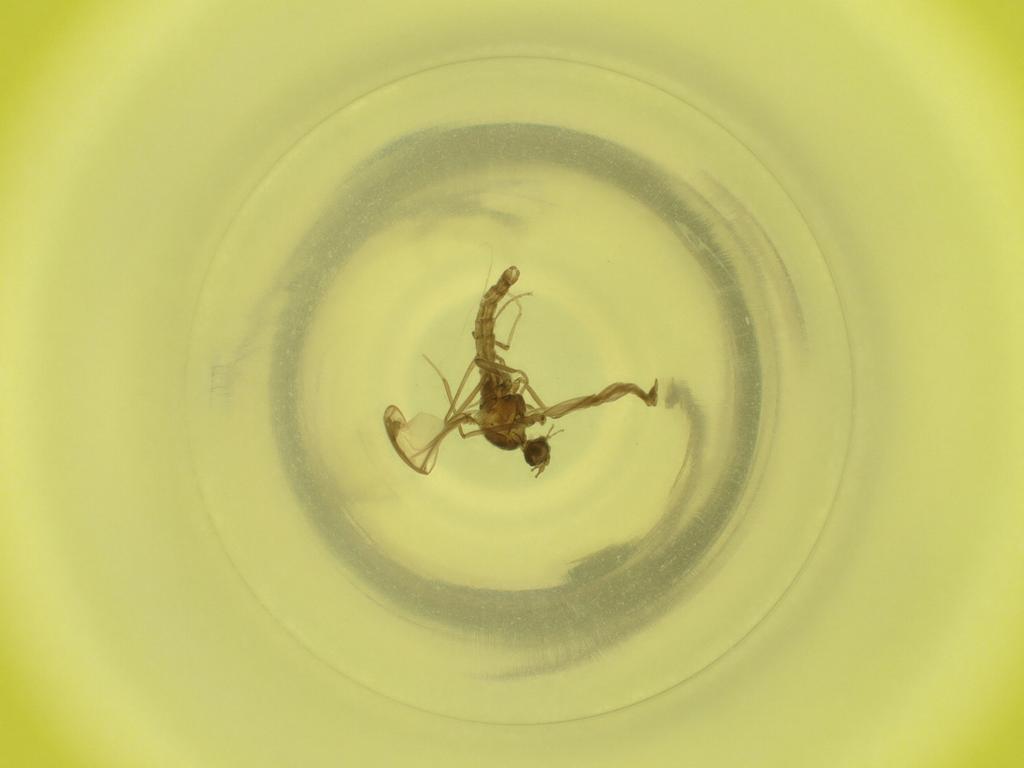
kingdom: Animalia
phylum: Arthropoda
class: Insecta
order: Diptera
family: Cecidomyiidae
